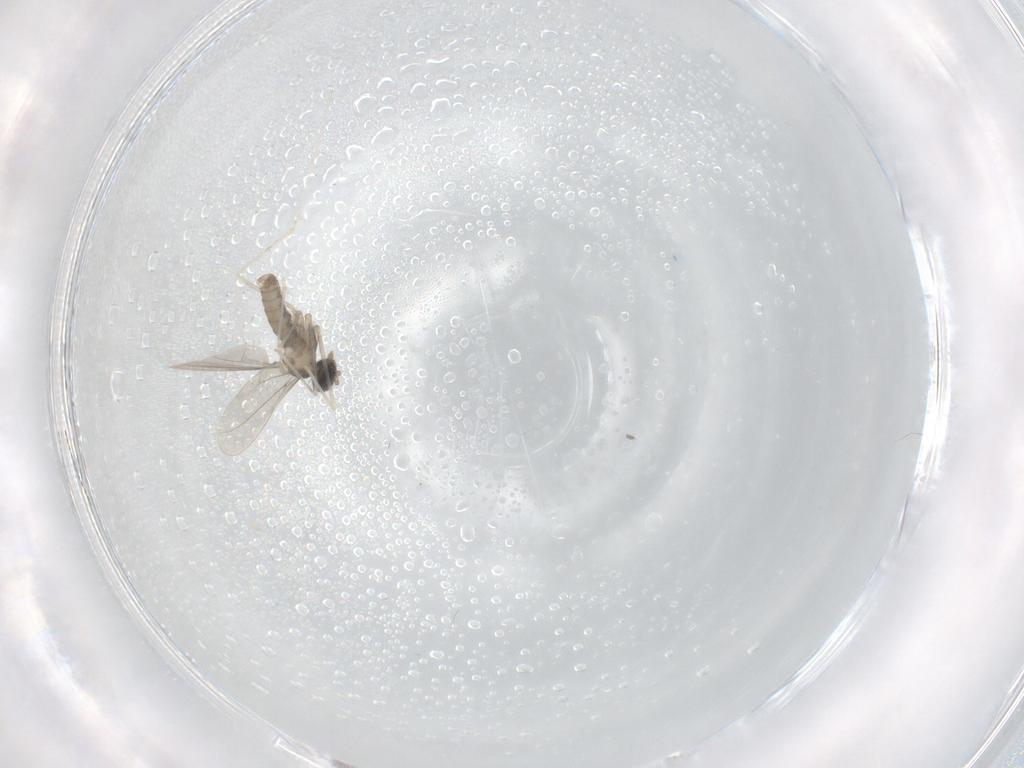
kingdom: Animalia
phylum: Arthropoda
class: Insecta
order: Diptera
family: Cecidomyiidae
